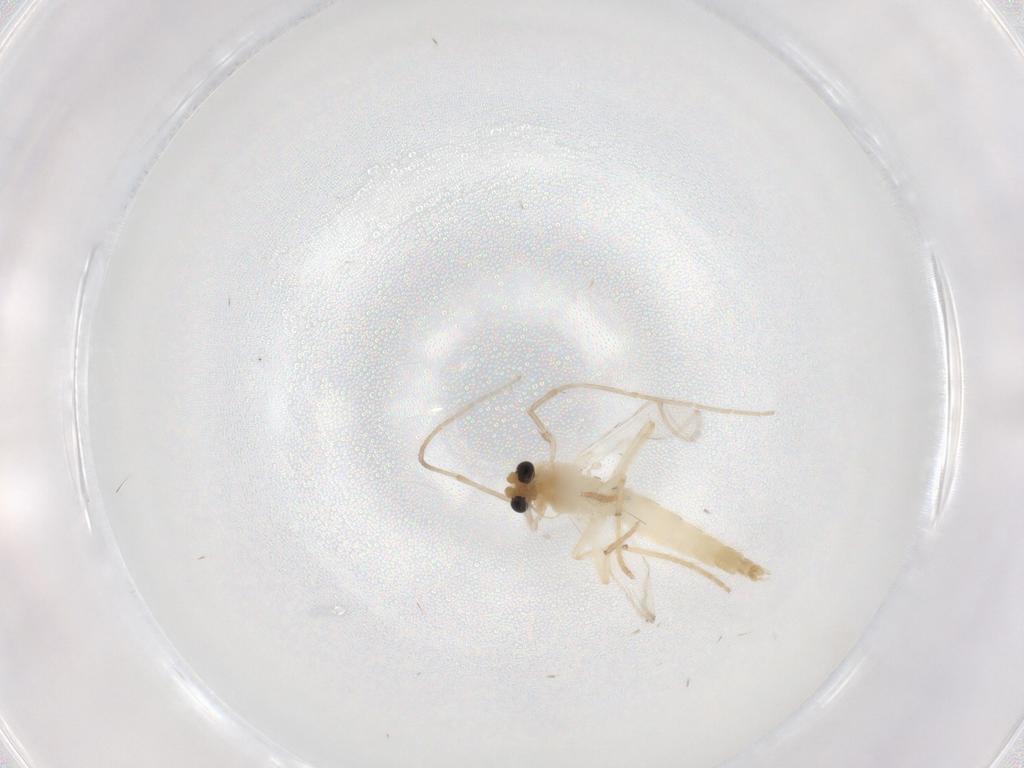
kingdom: Animalia
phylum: Arthropoda
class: Insecta
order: Diptera
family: Chironomidae
